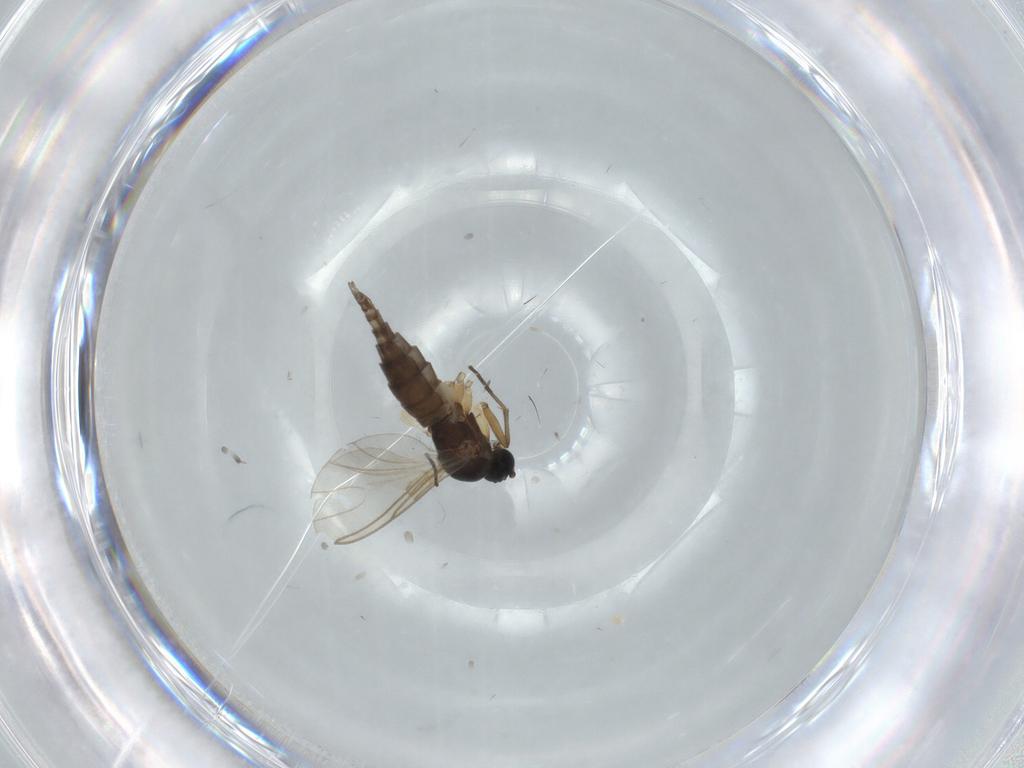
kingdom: Animalia
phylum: Arthropoda
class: Insecta
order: Diptera
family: Sciaridae
